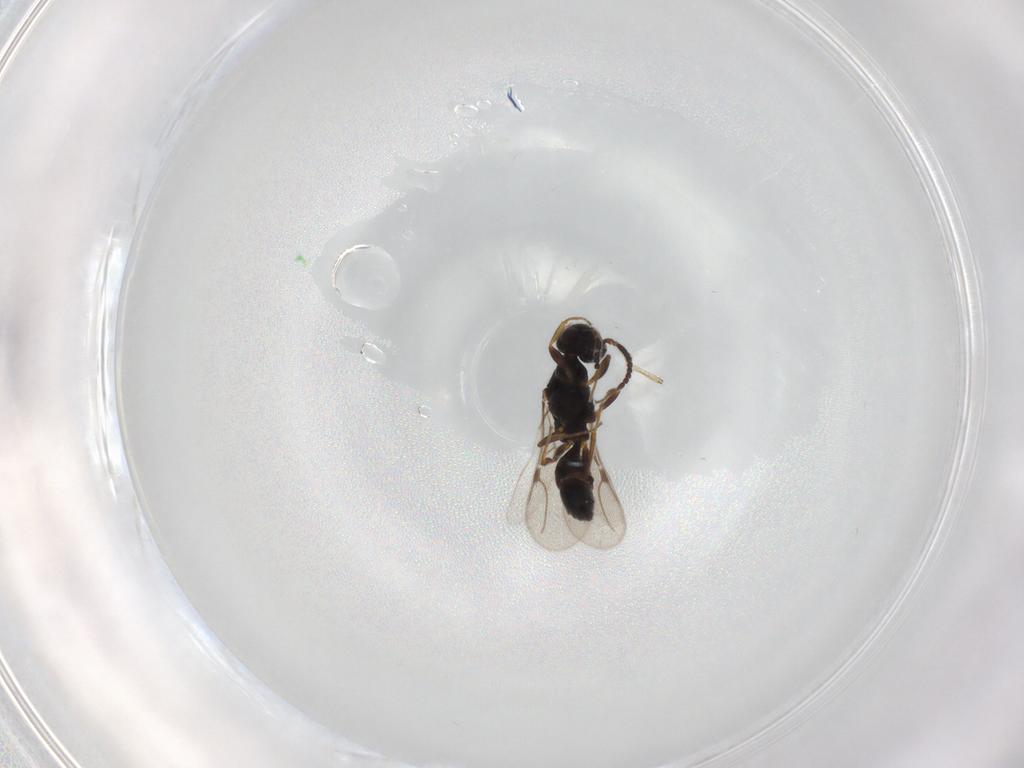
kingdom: Animalia
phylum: Arthropoda
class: Insecta
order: Hymenoptera
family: Bethylidae
